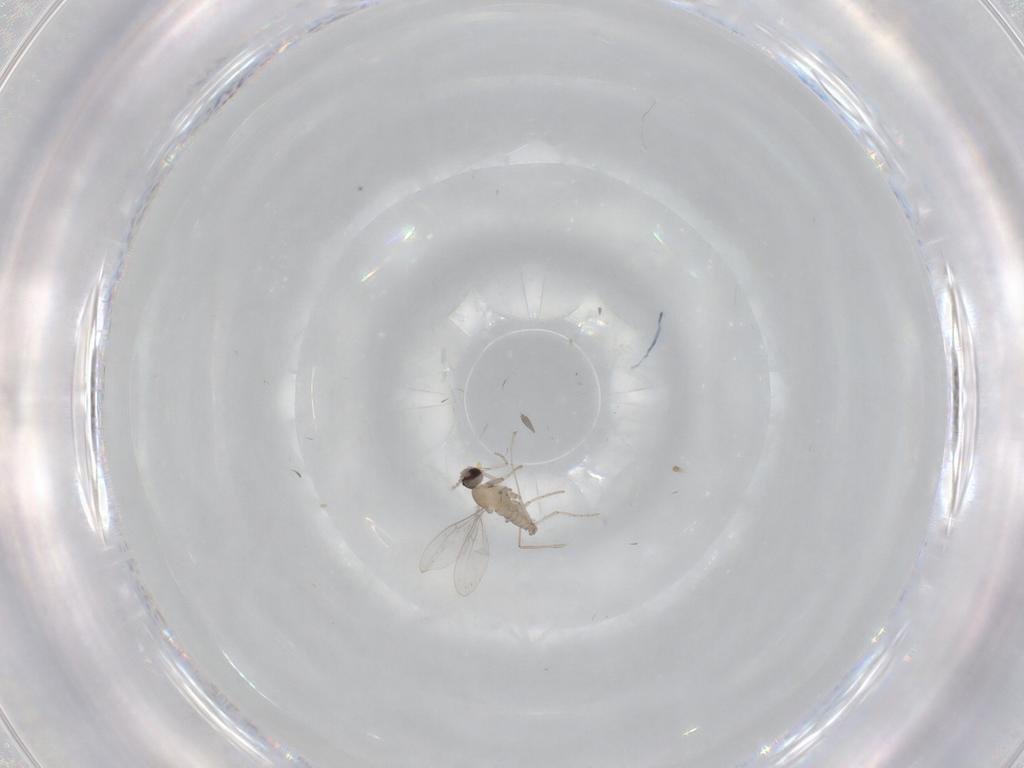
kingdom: Animalia
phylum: Arthropoda
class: Insecta
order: Diptera
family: Cecidomyiidae
